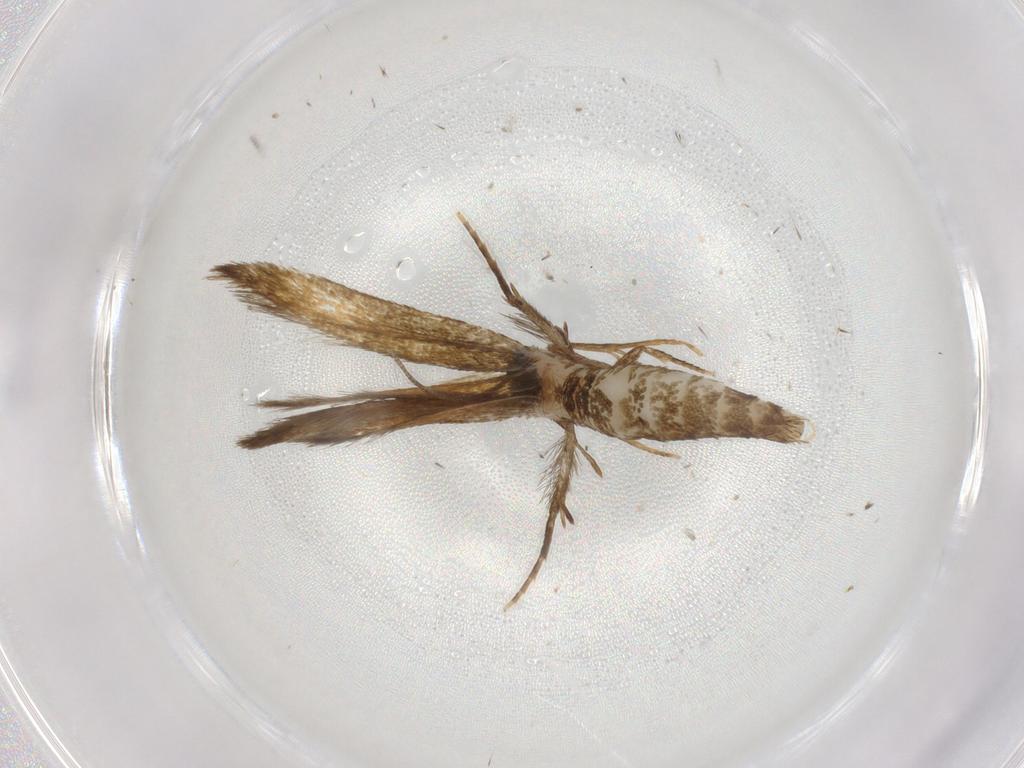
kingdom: Animalia
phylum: Arthropoda
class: Insecta
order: Lepidoptera
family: Tineidae
